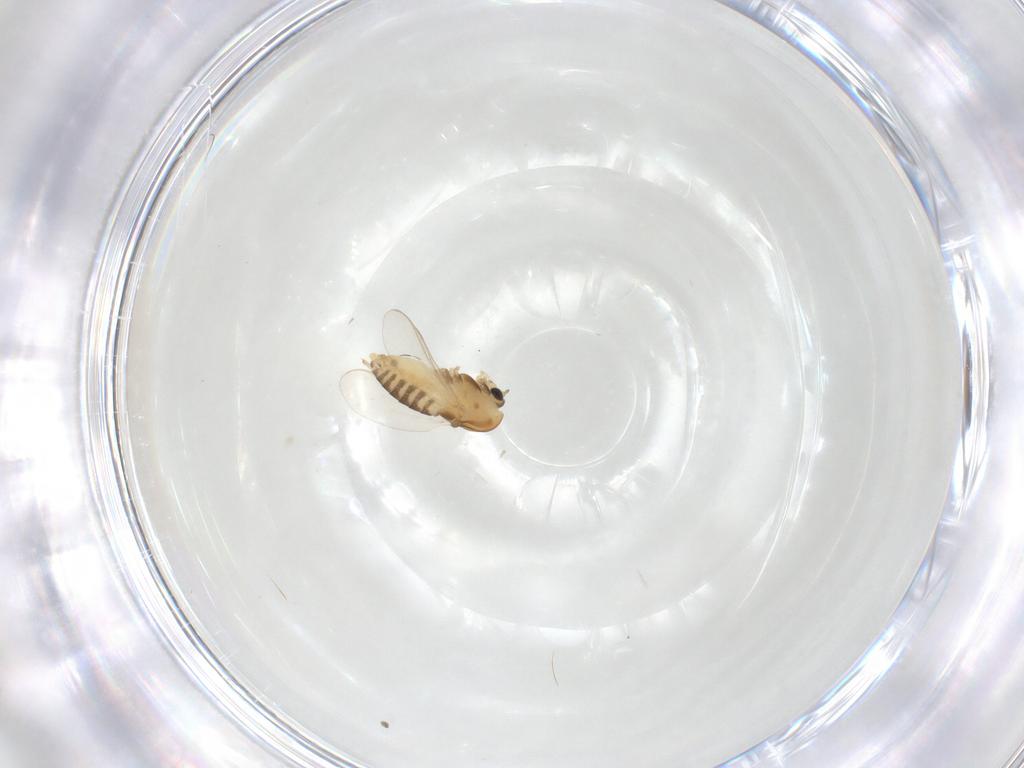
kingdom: Animalia
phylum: Arthropoda
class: Insecta
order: Diptera
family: Chironomidae
